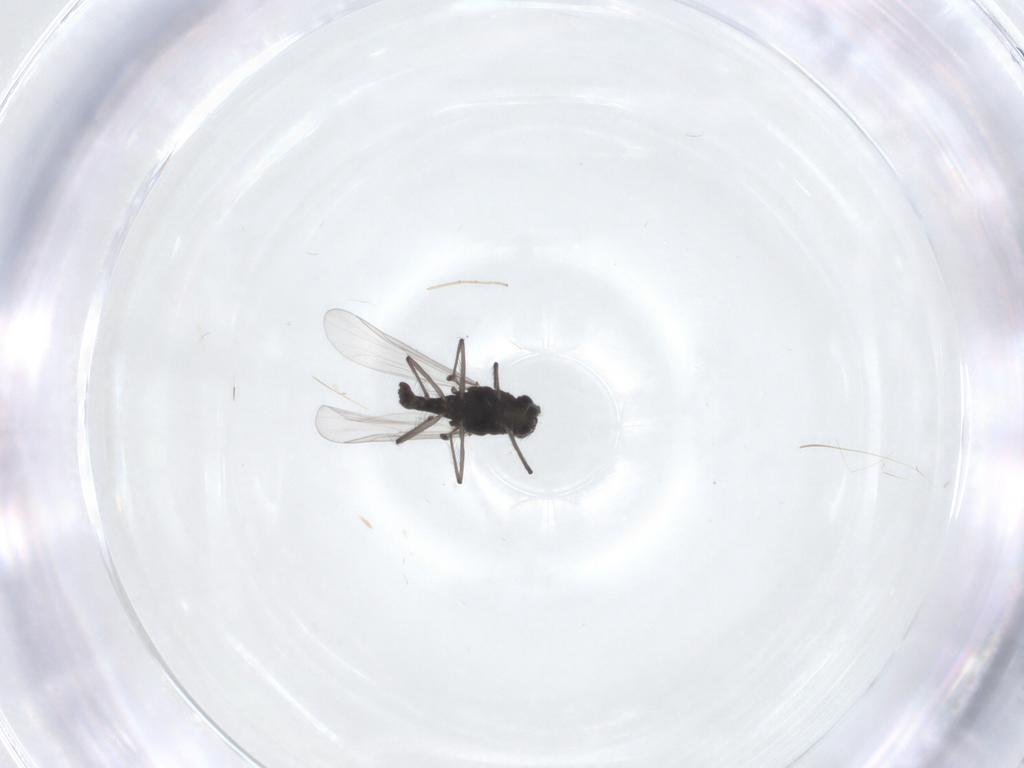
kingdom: Animalia
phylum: Arthropoda
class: Insecta
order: Diptera
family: Chironomidae
